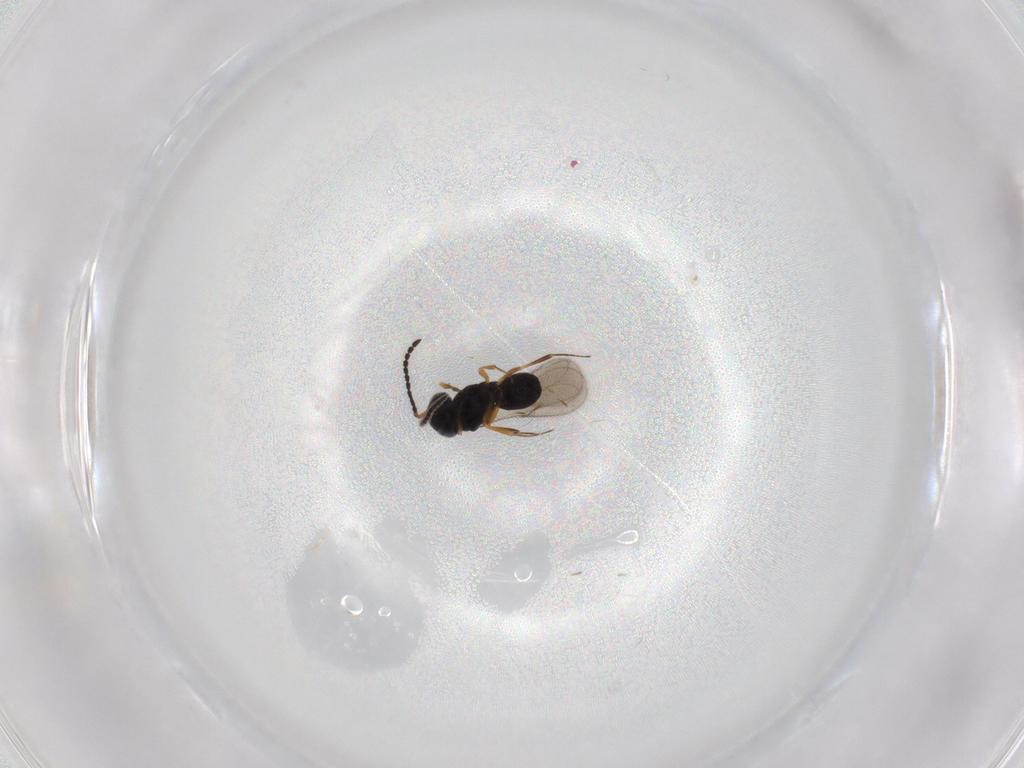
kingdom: Animalia
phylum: Arthropoda
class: Insecta
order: Hymenoptera
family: Scelionidae
